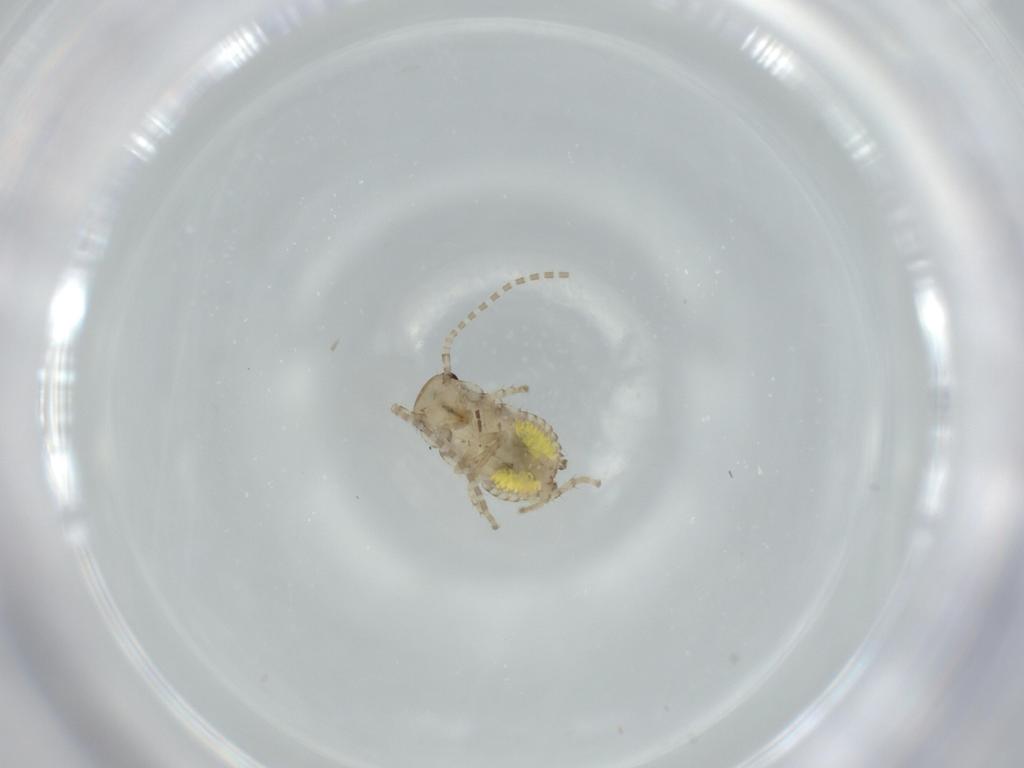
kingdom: Animalia
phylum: Arthropoda
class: Insecta
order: Blattodea
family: Ectobiidae
